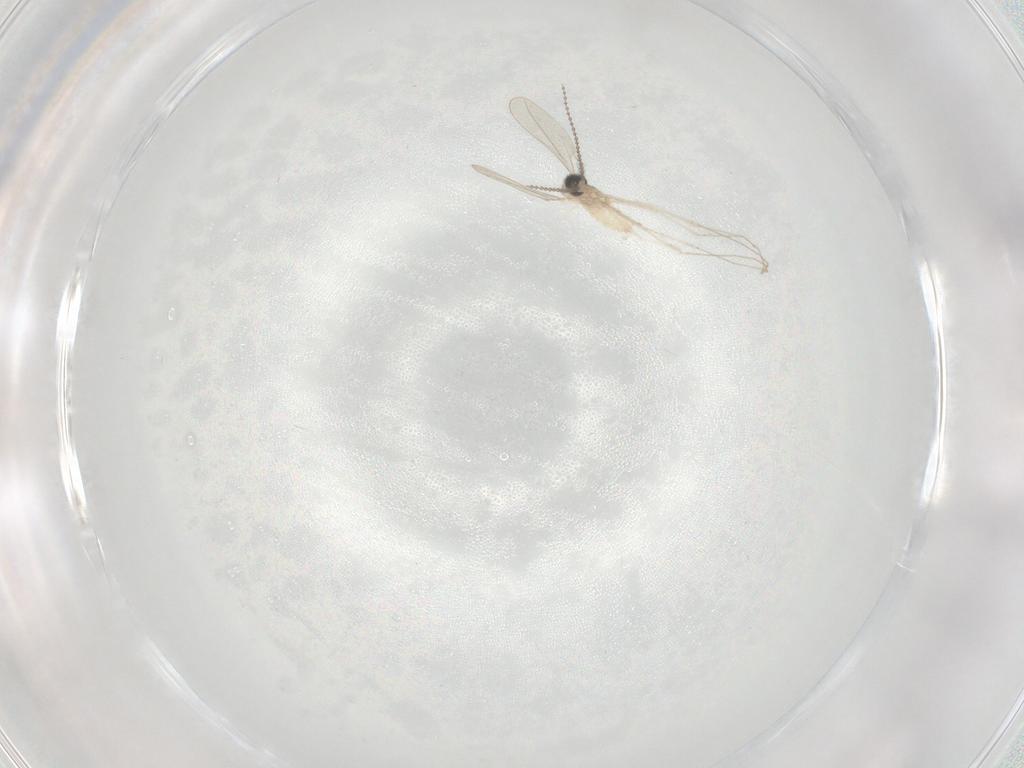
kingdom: Animalia
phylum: Arthropoda
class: Insecta
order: Diptera
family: Cecidomyiidae
